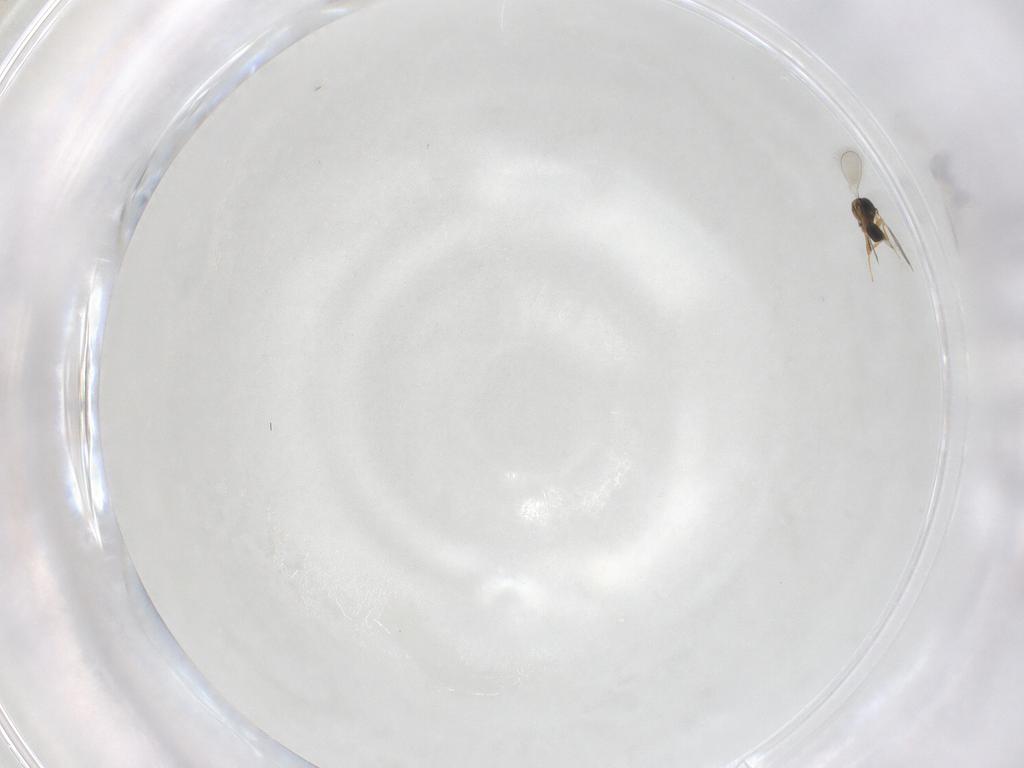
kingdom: Animalia
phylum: Arthropoda
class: Insecta
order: Hymenoptera
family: Platygastridae
